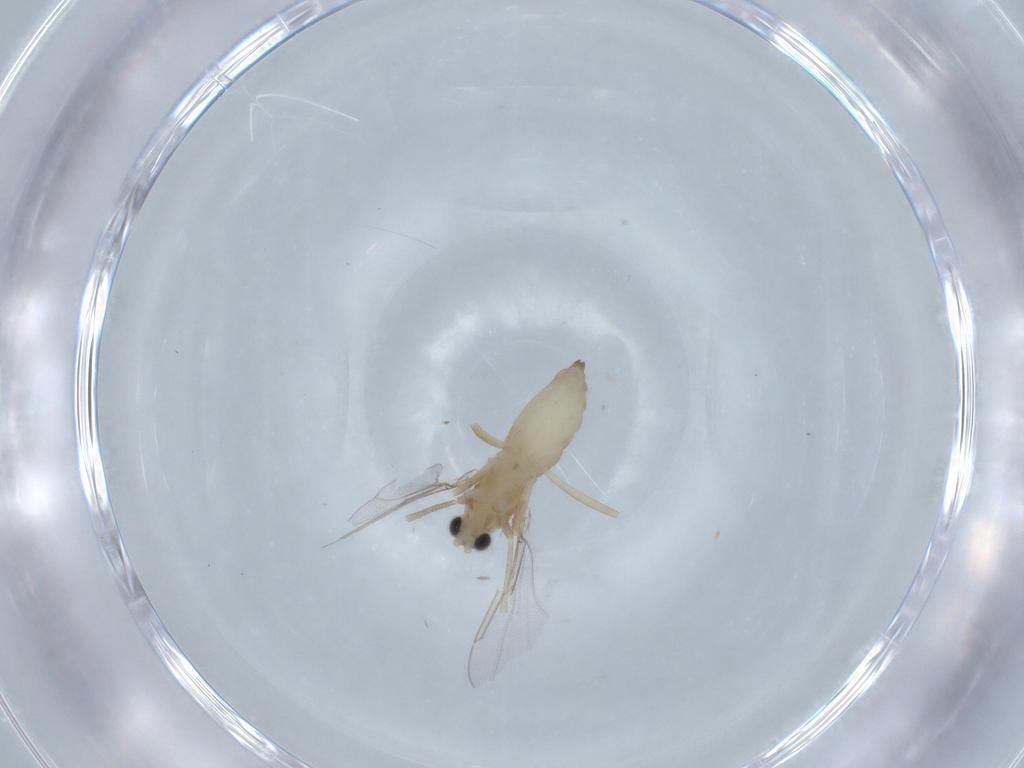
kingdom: Animalia
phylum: Arthropoda
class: Insecta
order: Diptera
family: Cecidomyiidae
